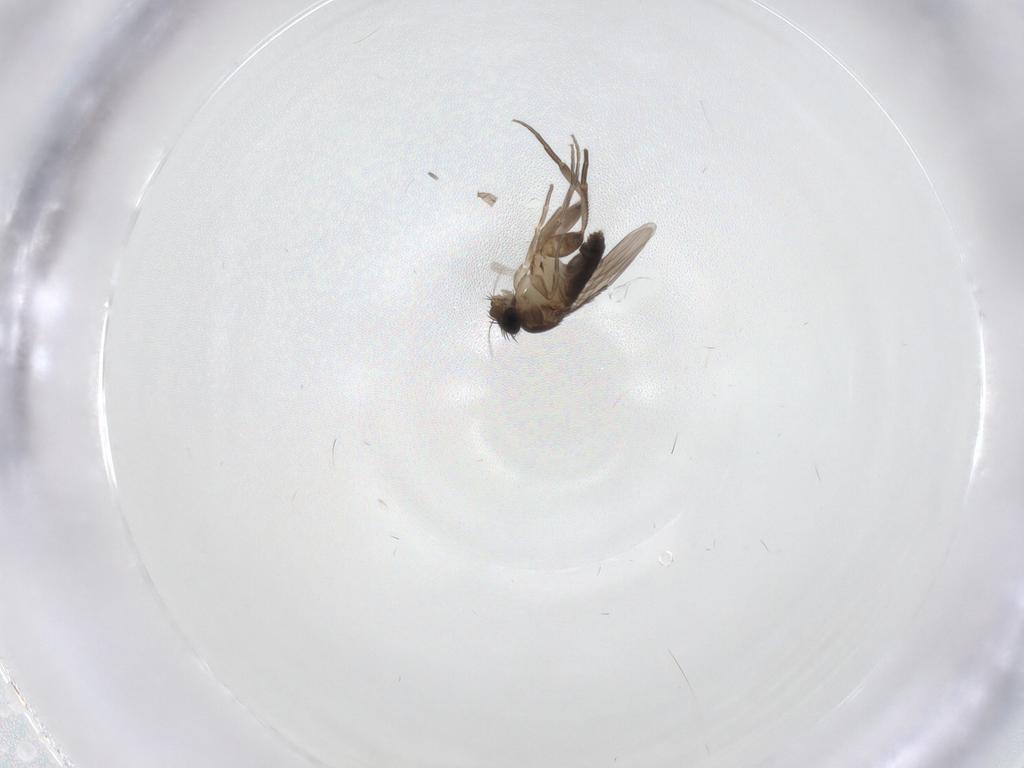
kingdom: Animalia
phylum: Arthropoda
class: Insecta
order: Diptera
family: Phoridae
